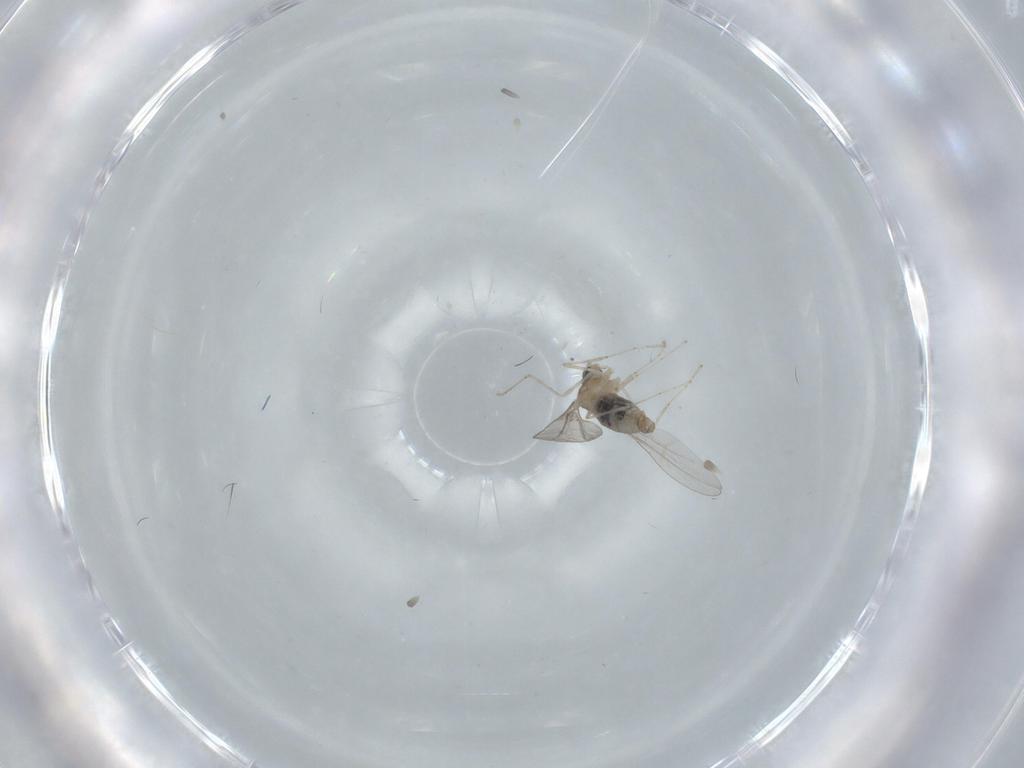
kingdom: Animalia
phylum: Arthropoda
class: Insecta
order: Diptera
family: Cecidomyiidae
